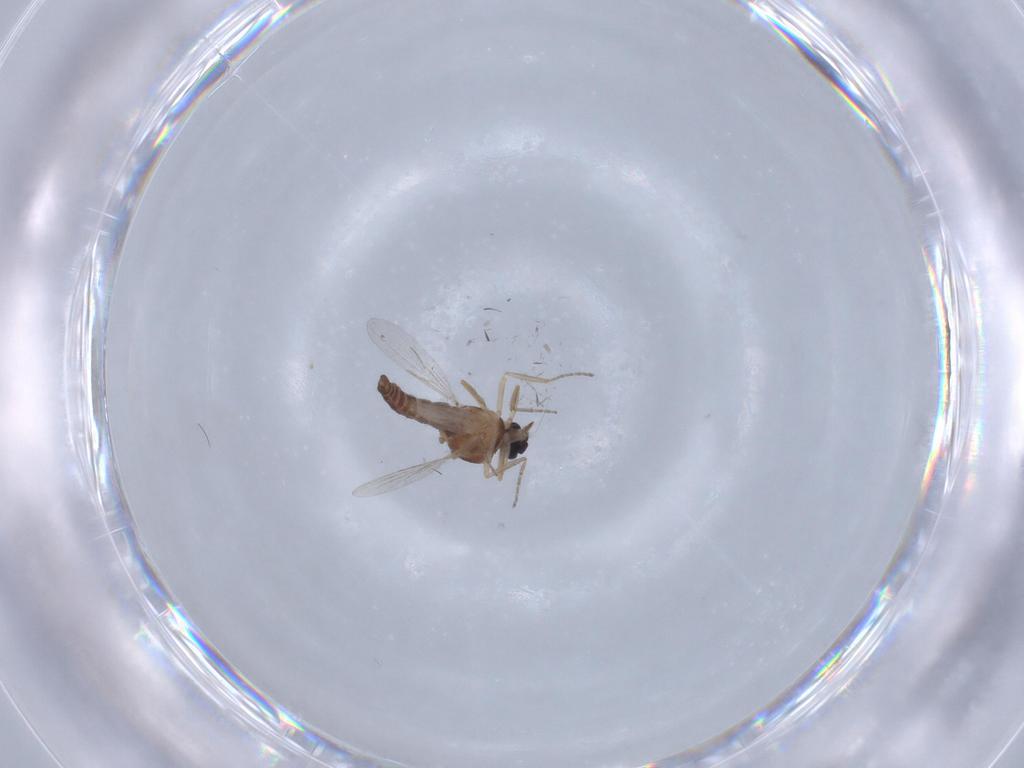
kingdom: Animalia
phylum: Arthropoda
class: Insecta
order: Diptera
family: Ceratopogonidae
